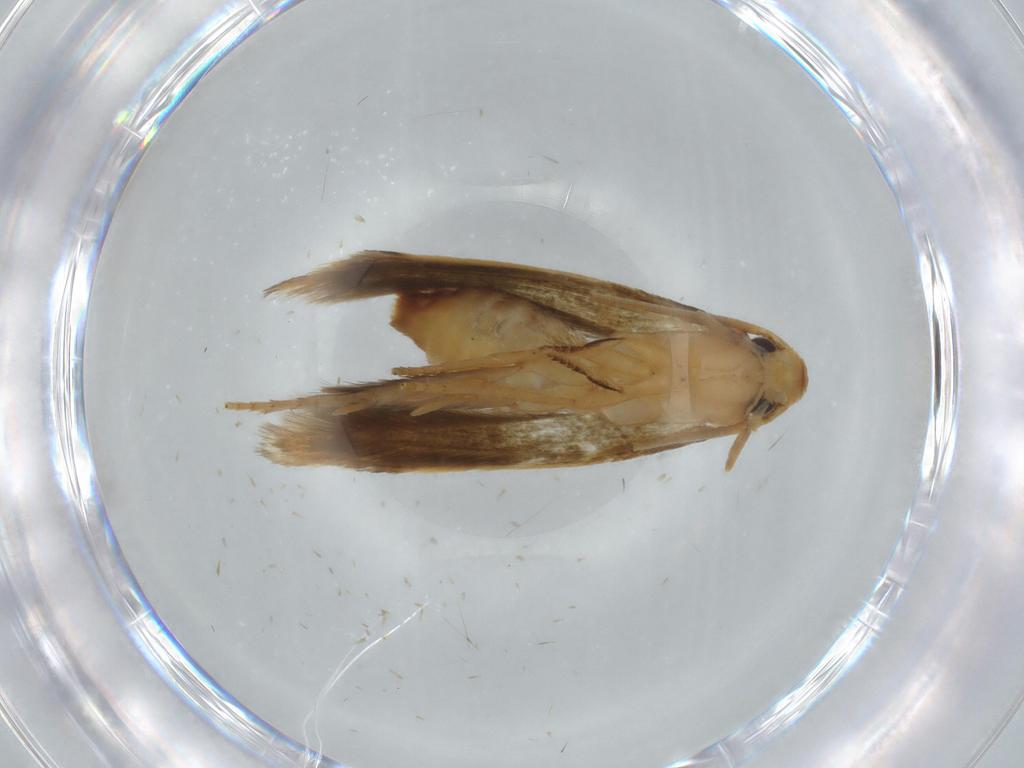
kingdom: Animalia
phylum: Arthropoda
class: Insecta
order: Lepidoptera
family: Tineidae
